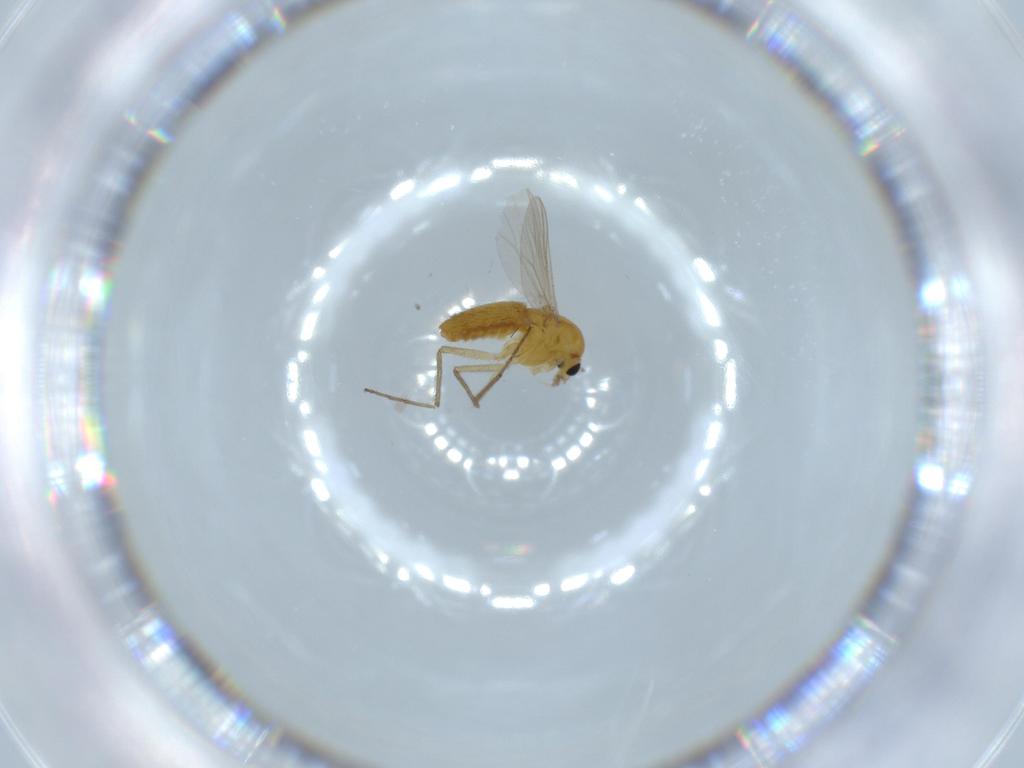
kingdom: Animalia
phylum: Arthropoda
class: Insecta
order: Diptera
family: Chironomidae
